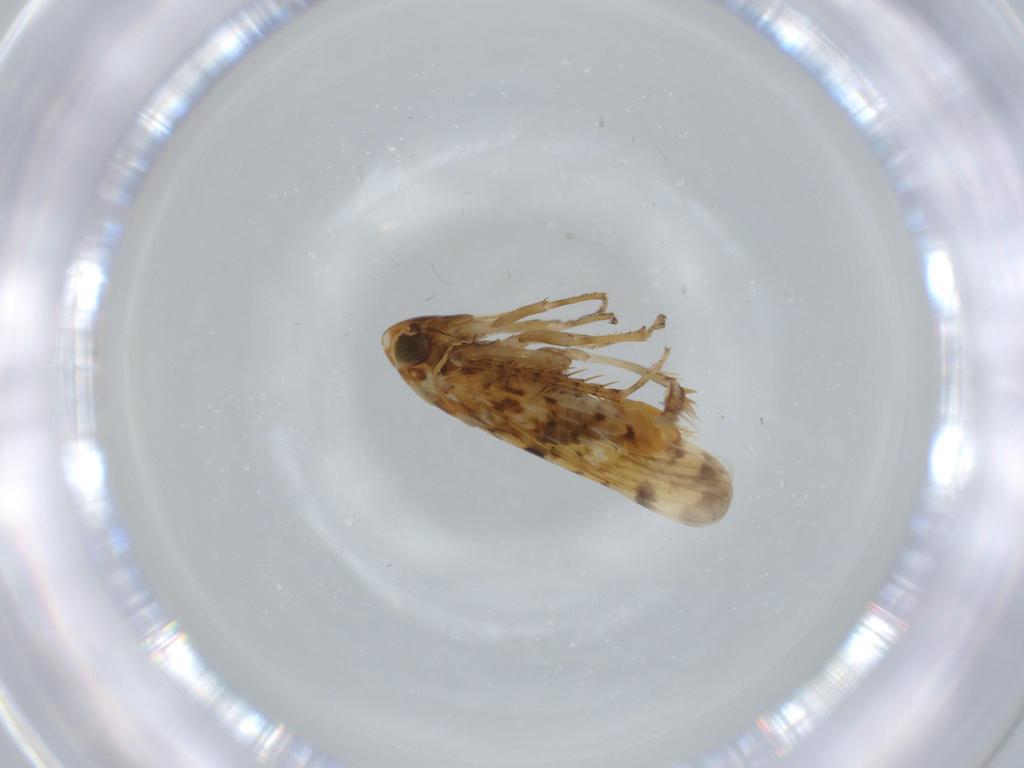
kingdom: Animalia
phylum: Arthropoda
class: Insecta
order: Hemiptera
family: Cicadellidae
